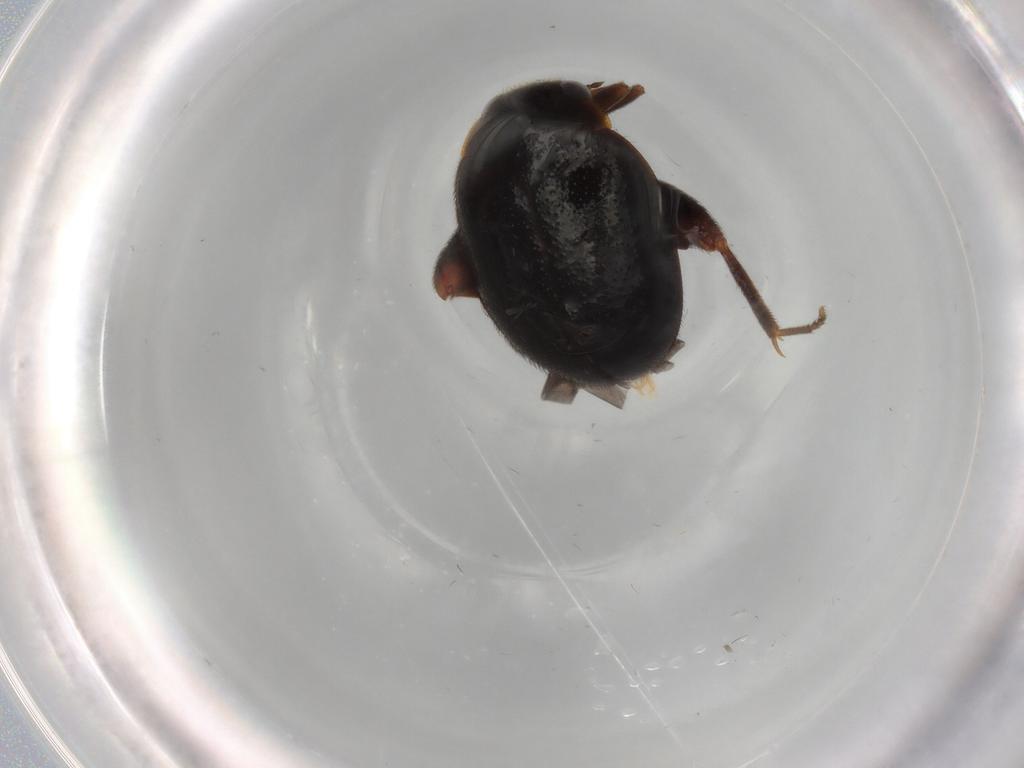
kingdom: Animalia
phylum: Arthropoda
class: Insecta
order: Coleoptera
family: Scirtidae
